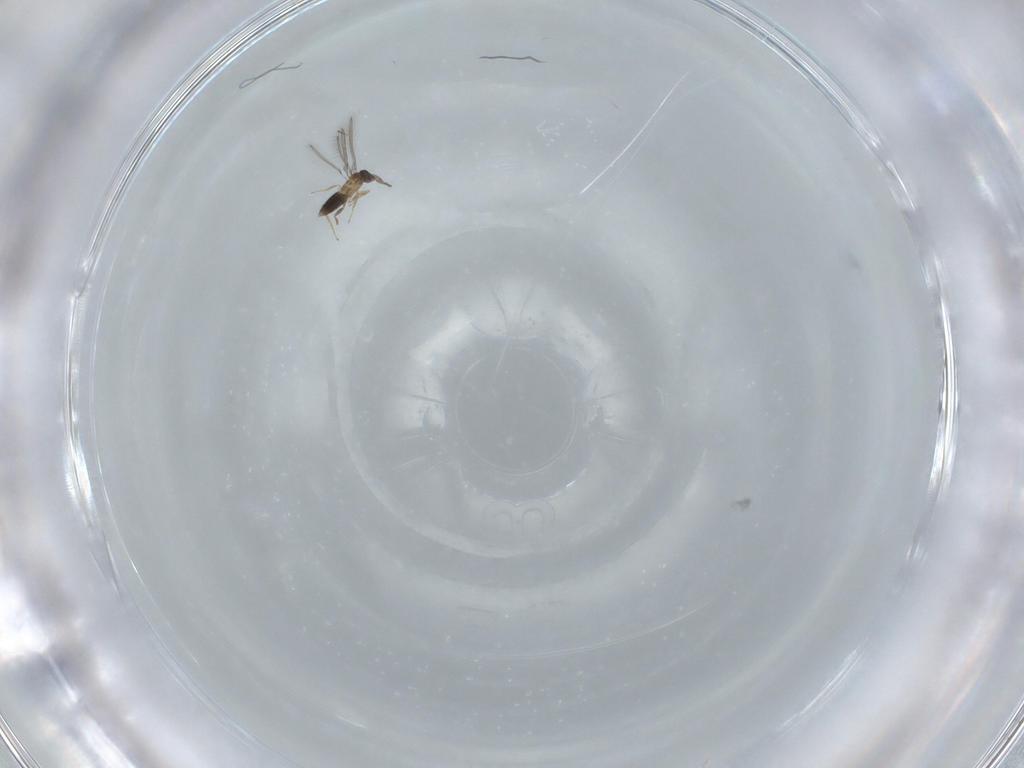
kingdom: Animalia
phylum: Arthropoda
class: Insecta
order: Hymenoptera
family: Mymaridae
